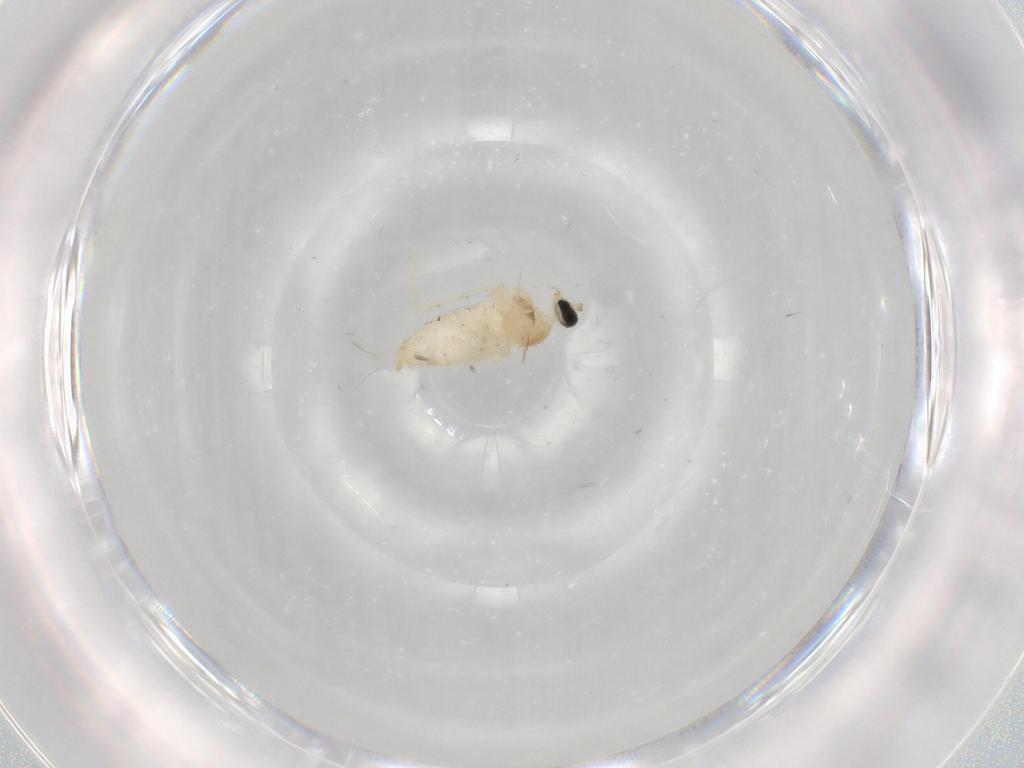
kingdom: Animalia
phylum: Arthropoda
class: Insecta
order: Diptera
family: Cecidomyiidae
